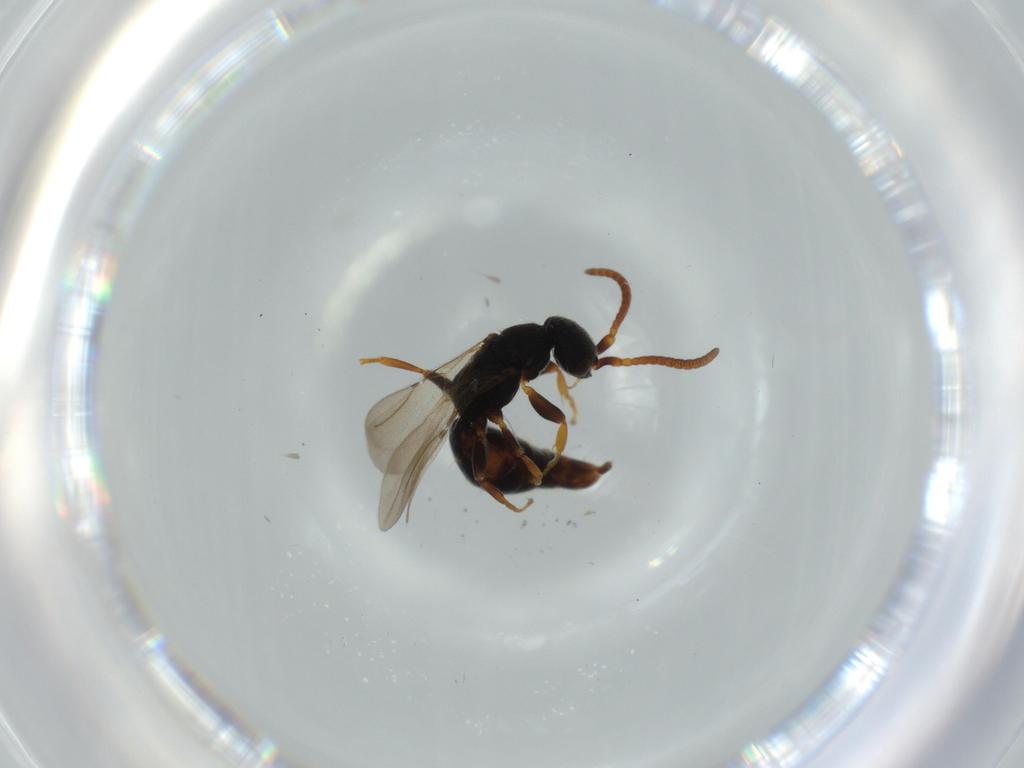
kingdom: Animalia
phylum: Arthropoda
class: Insecta
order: Hymenoptera
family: Bethylidae
